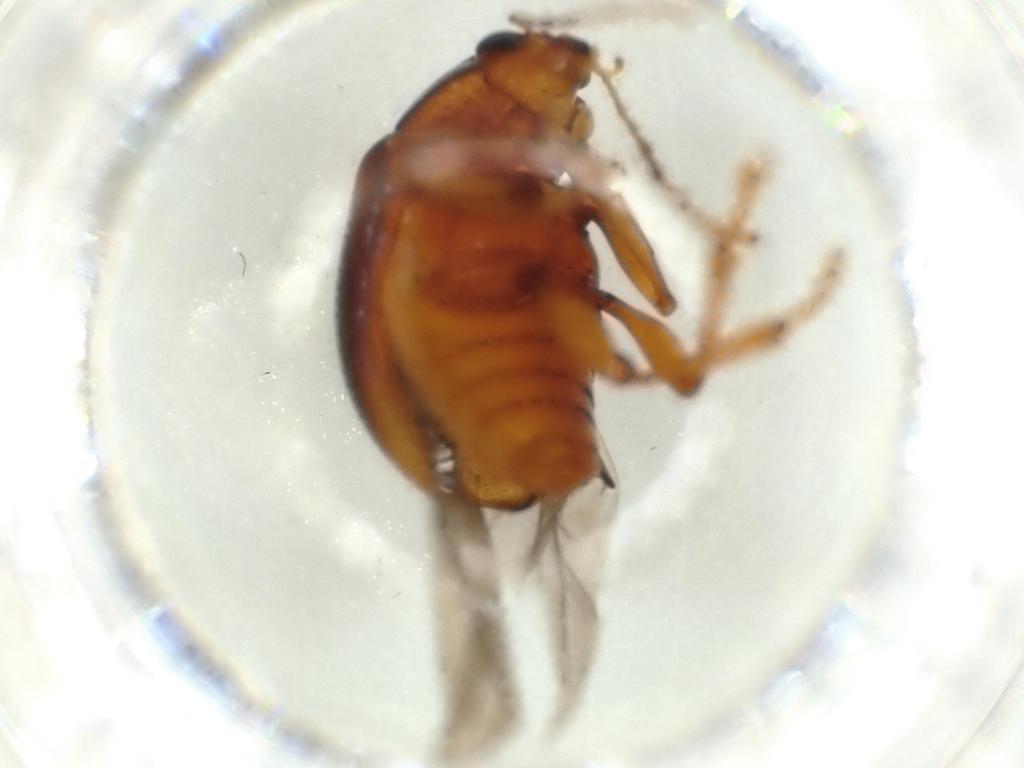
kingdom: Animalia
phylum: Arthropoda
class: Insecta
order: Coleoptera
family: Chrysomelidae
